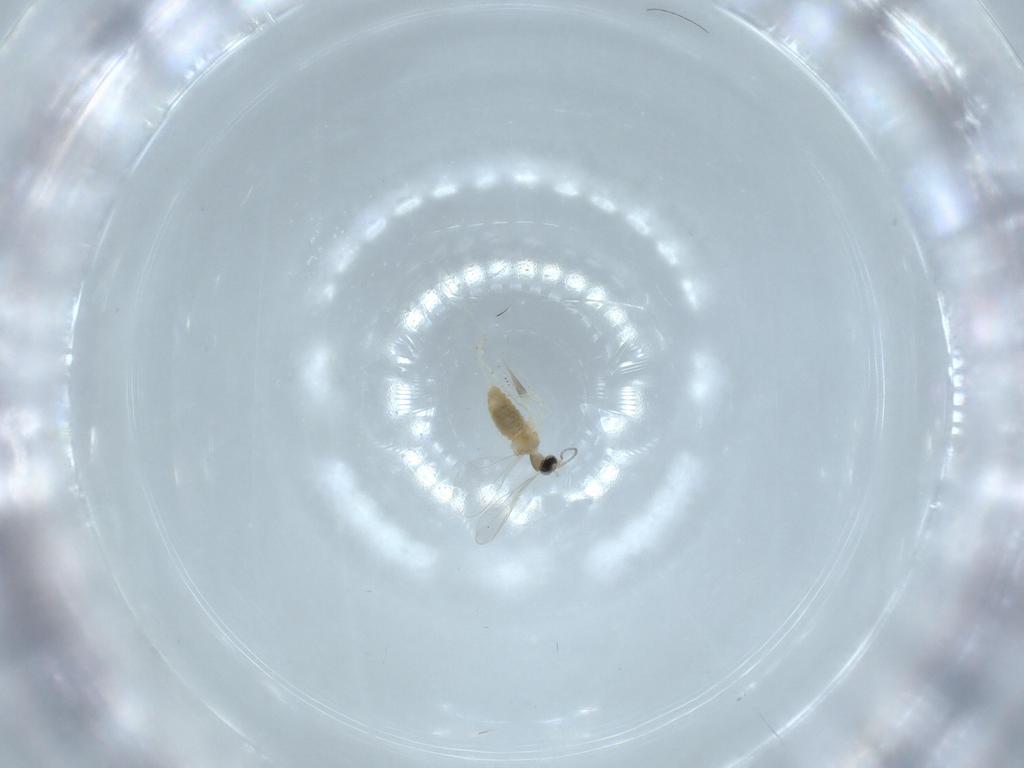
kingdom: Animalia
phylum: Arthropoda
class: Insecta
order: Diptera
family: Cecidomyiidae
